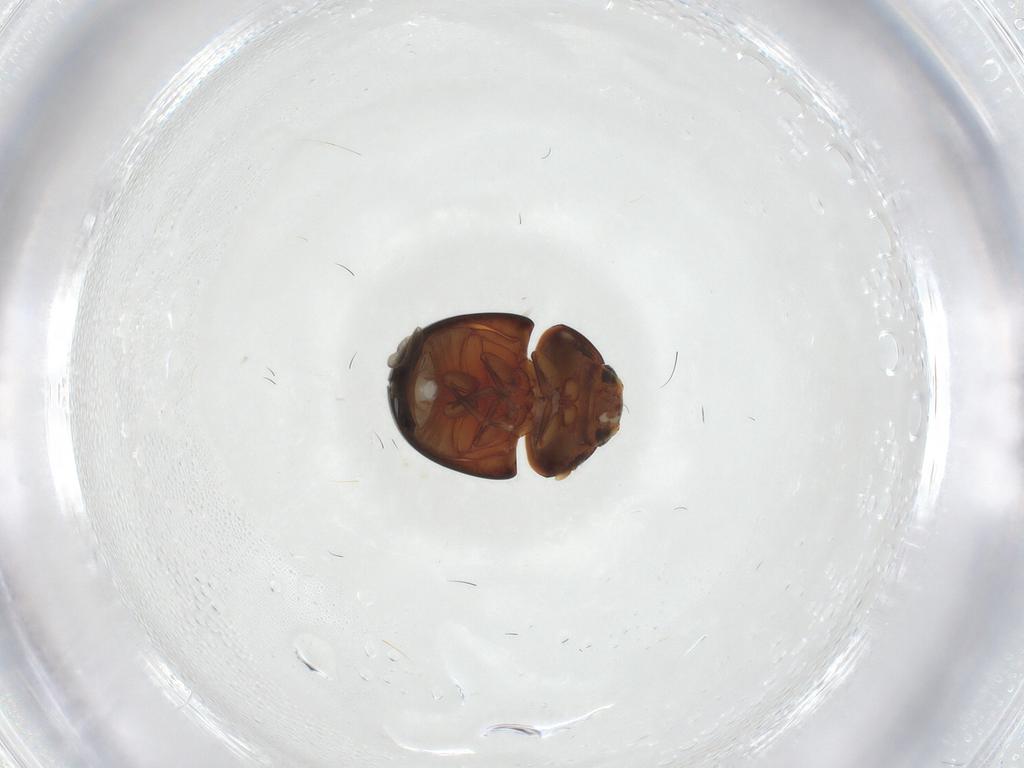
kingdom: Animalia
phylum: Arthropoda
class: Insecta
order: Coleoptera
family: Phalacridae
